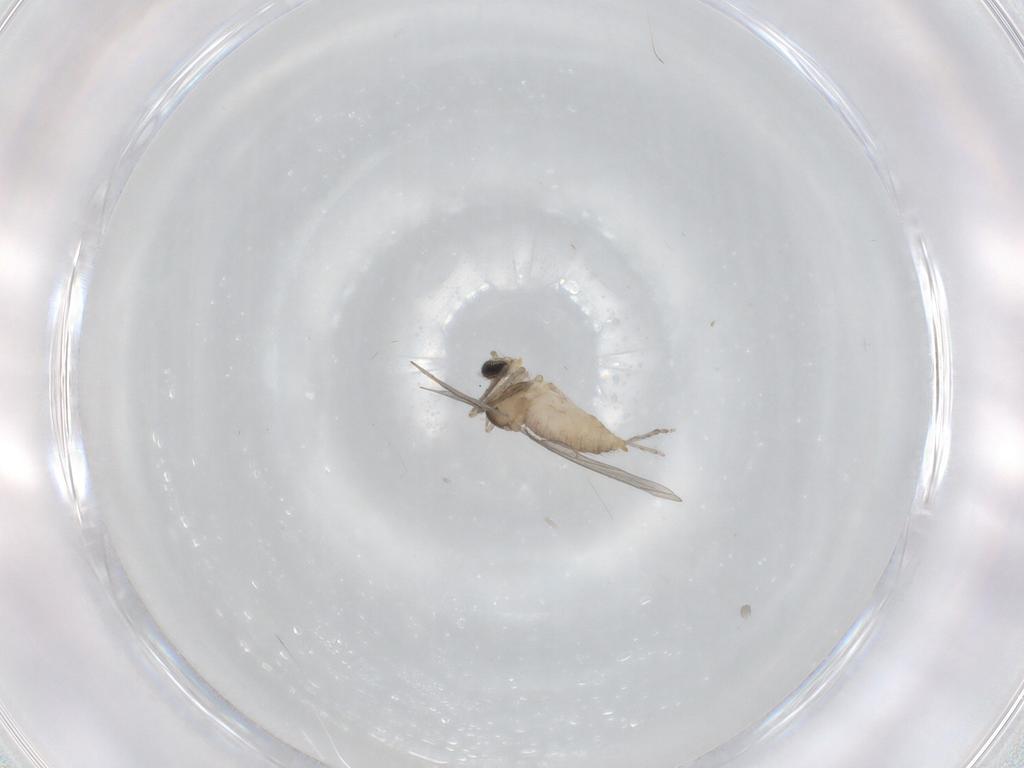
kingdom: Animalia
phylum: Arthropoda
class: Insecta
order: Diptera
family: Cecidomyiidae
